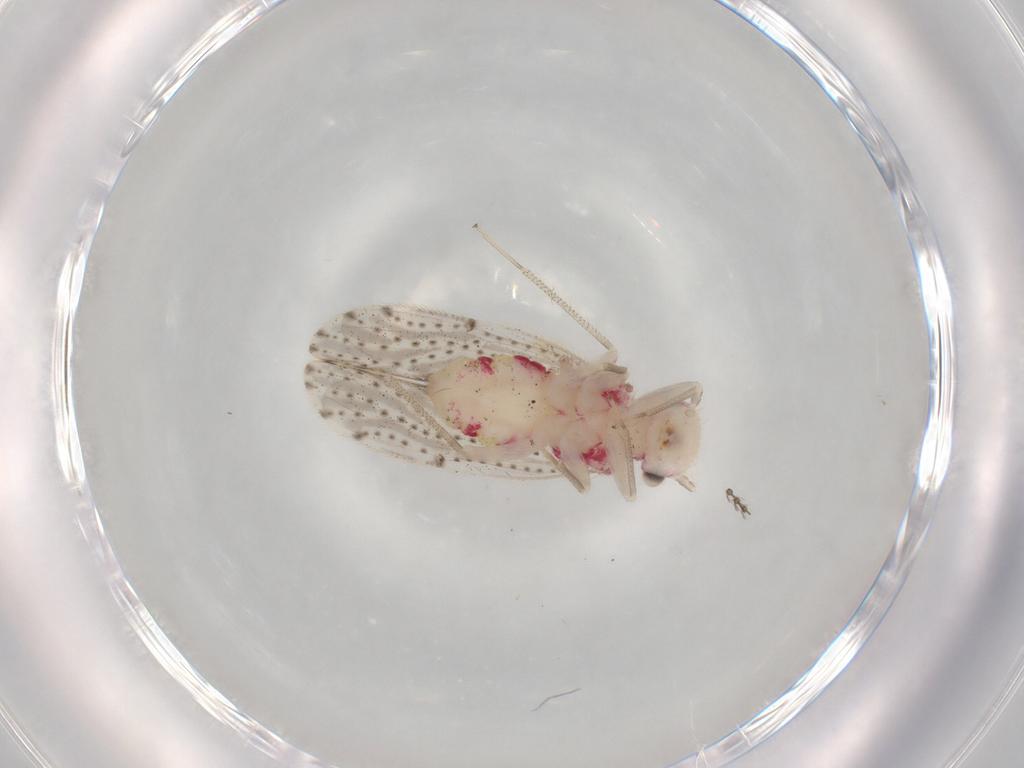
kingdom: Animalia
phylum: Arthropoda
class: Insecta
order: Psocodea
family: Hemipsocidae
